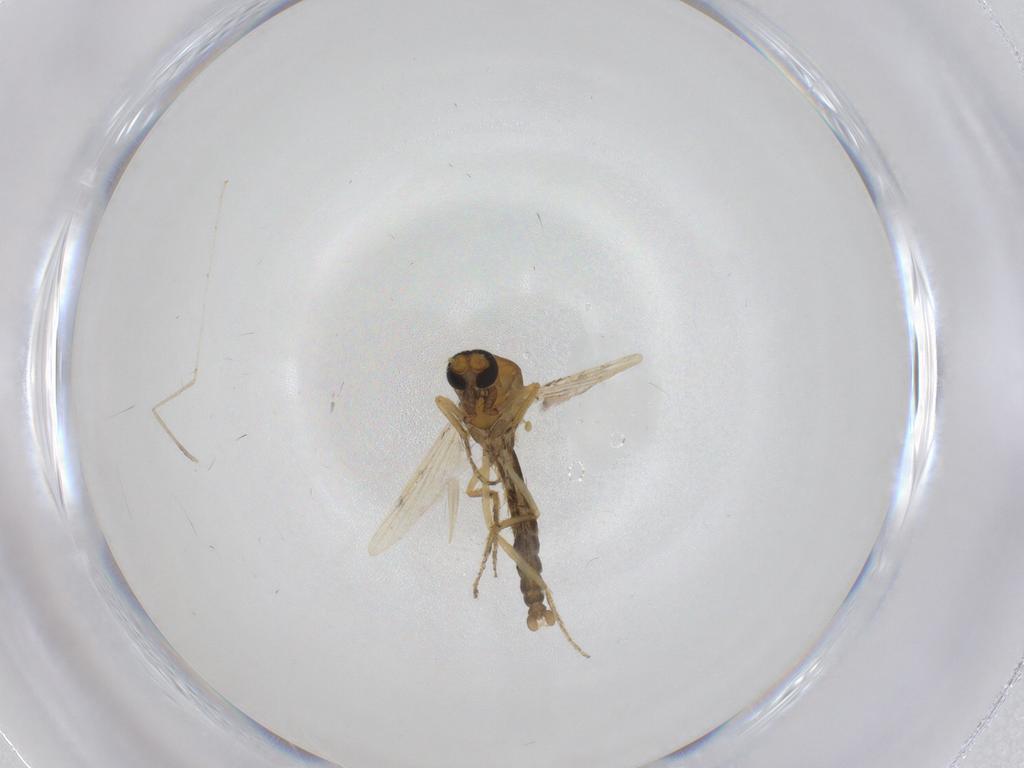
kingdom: Animalia
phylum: Arthropoda
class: Insecta
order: Diptera
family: Ceratopogonidae
